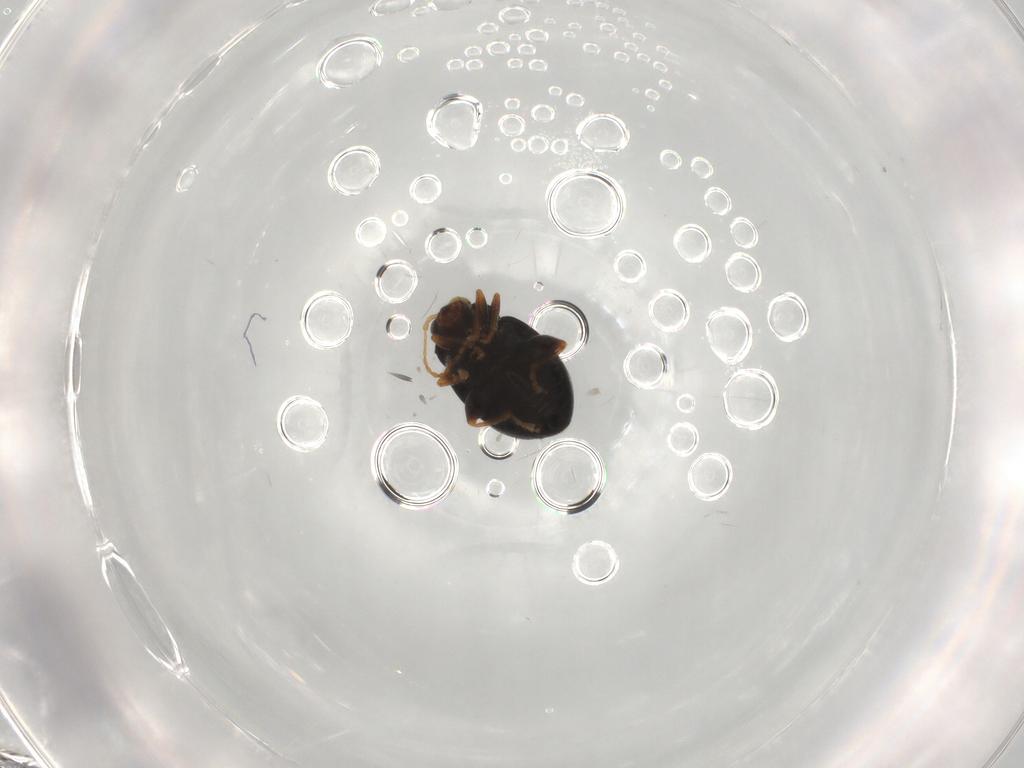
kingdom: Animalia
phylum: Arthropoda
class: Insecta
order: Coleoptera
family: Chrysomelidae
